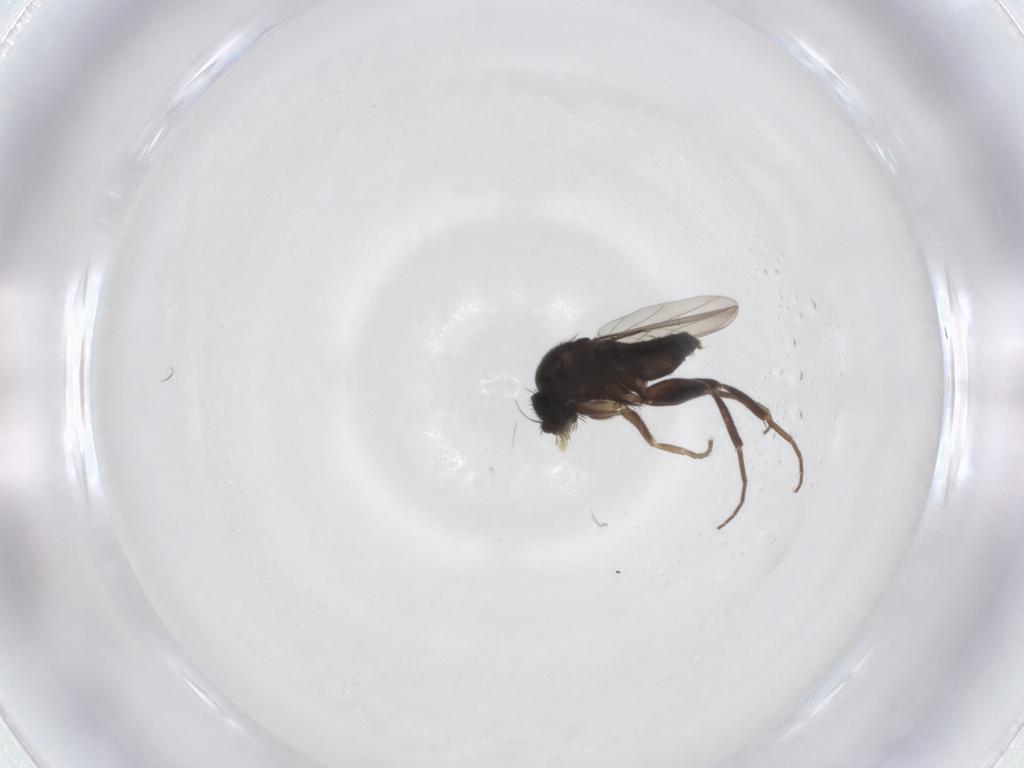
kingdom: Animalia
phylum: Arthropoda
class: Insecta
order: Diptera
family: Phoridae
